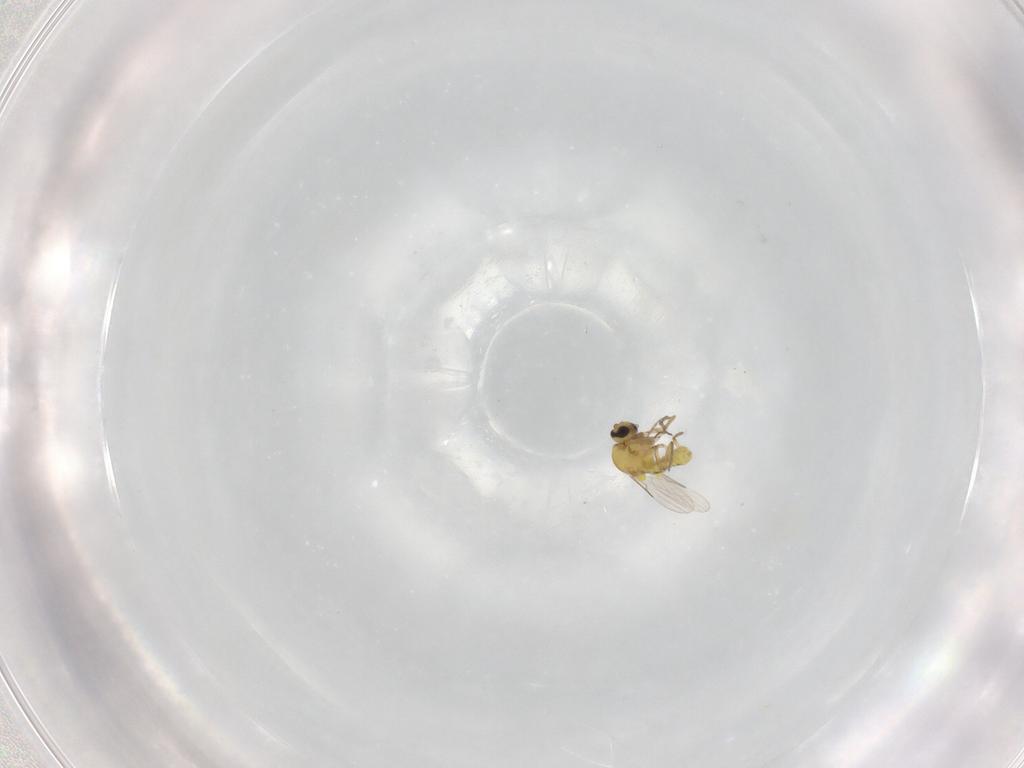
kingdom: Animalia
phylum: Arthropoda
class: Insecta
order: Diptera
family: Ceratopogonidae
